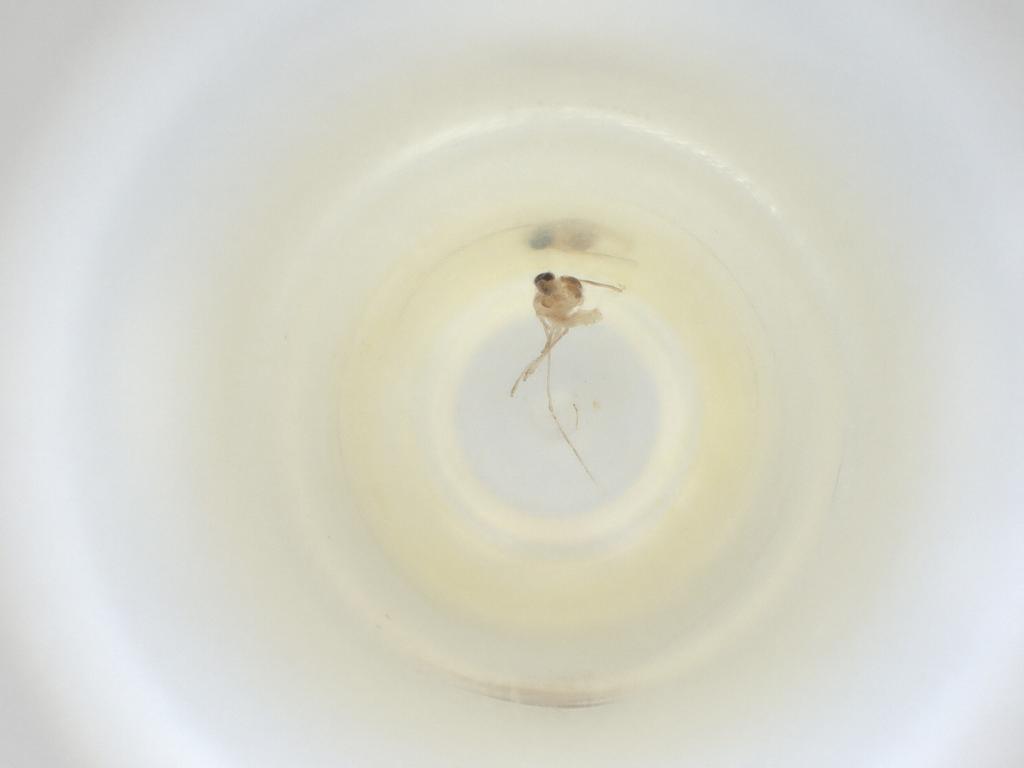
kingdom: Animalia
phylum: Arthropoda
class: Insecta
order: Diptera
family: Cecidomyiidae
